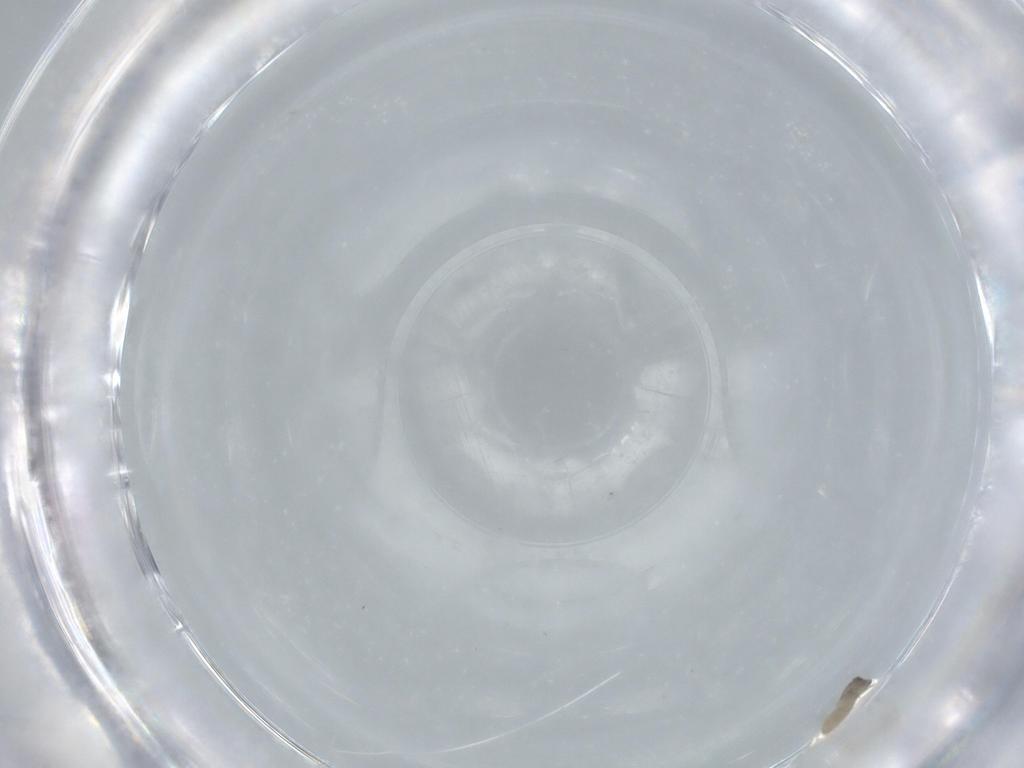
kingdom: Animalia
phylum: Arthropoda
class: Insecta
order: Diptera
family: Cecidomyiidae
